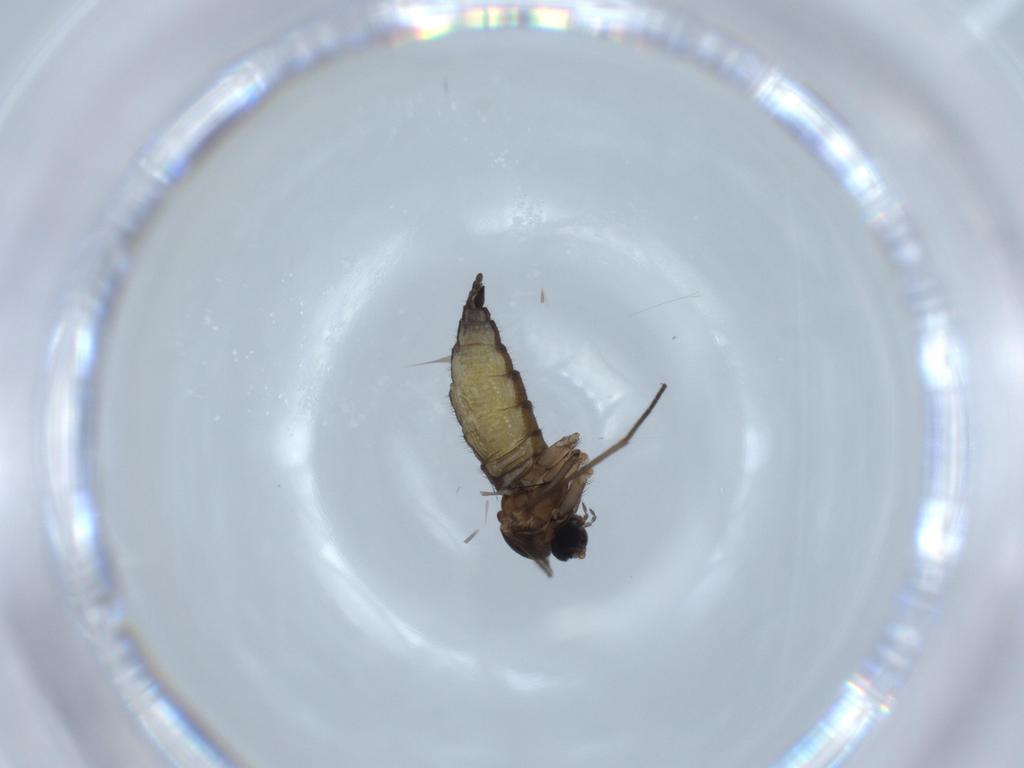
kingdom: Animalia
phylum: Arthropoda
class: Insecta
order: Diptera
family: Sciaridae
